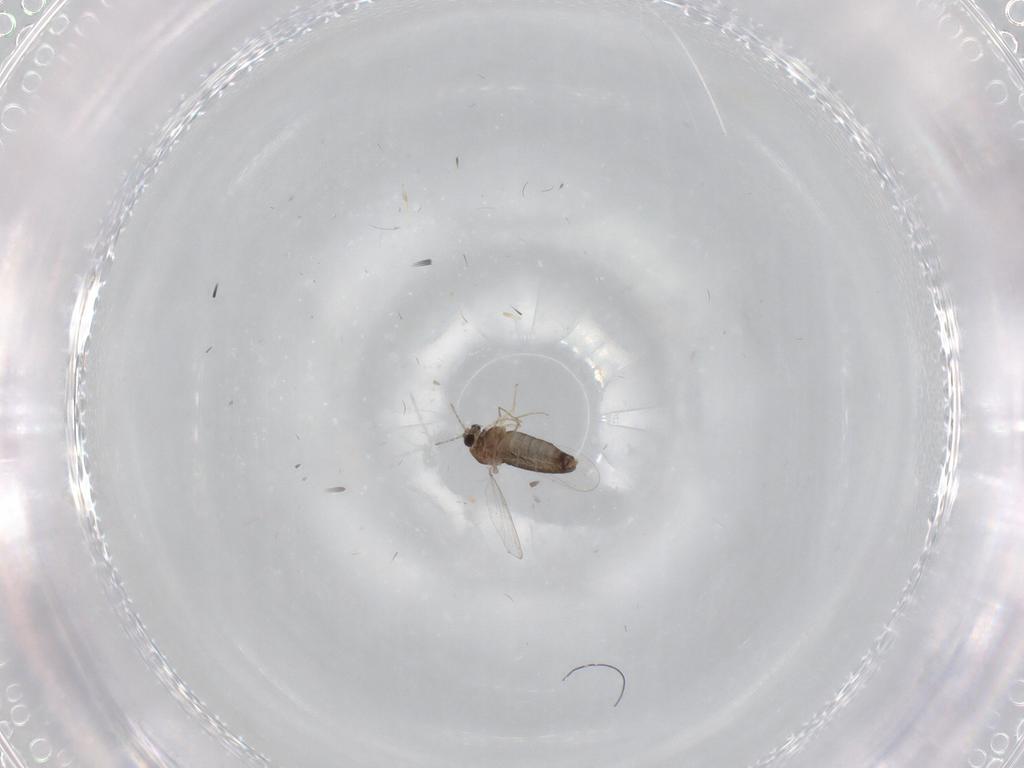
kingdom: Animalia
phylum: Arthropoda
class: Insecta
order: Diptera
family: Chironomidae
